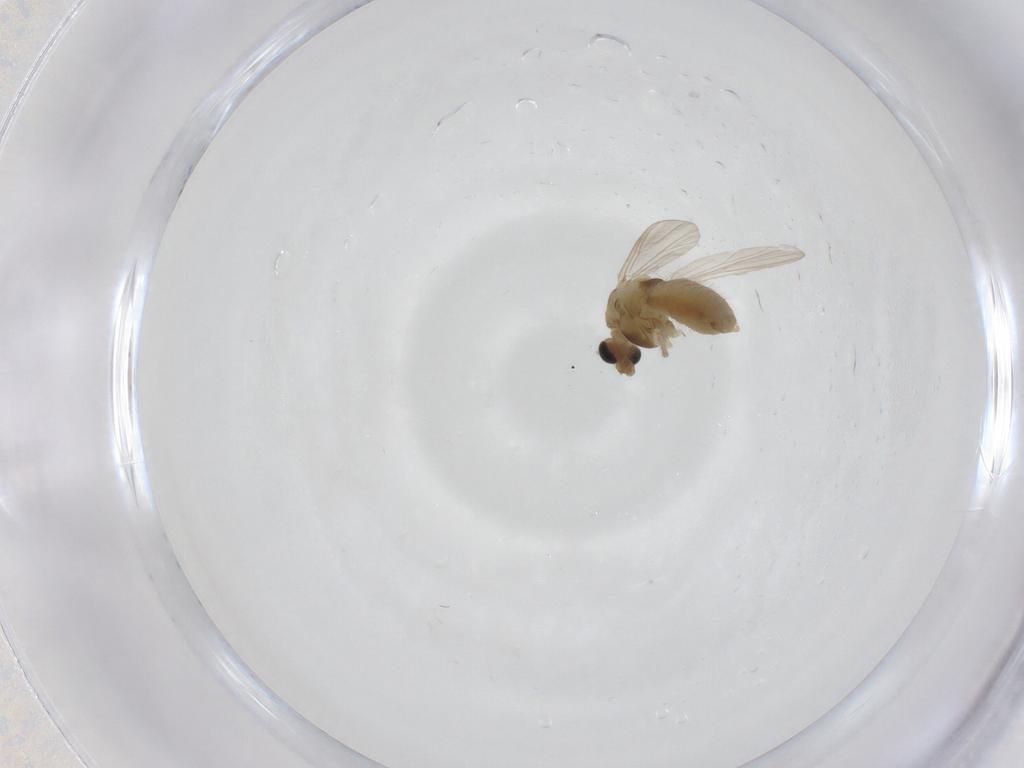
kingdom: Animalia
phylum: Arthropoda
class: Insecta
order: Diptera
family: Chironomidae
